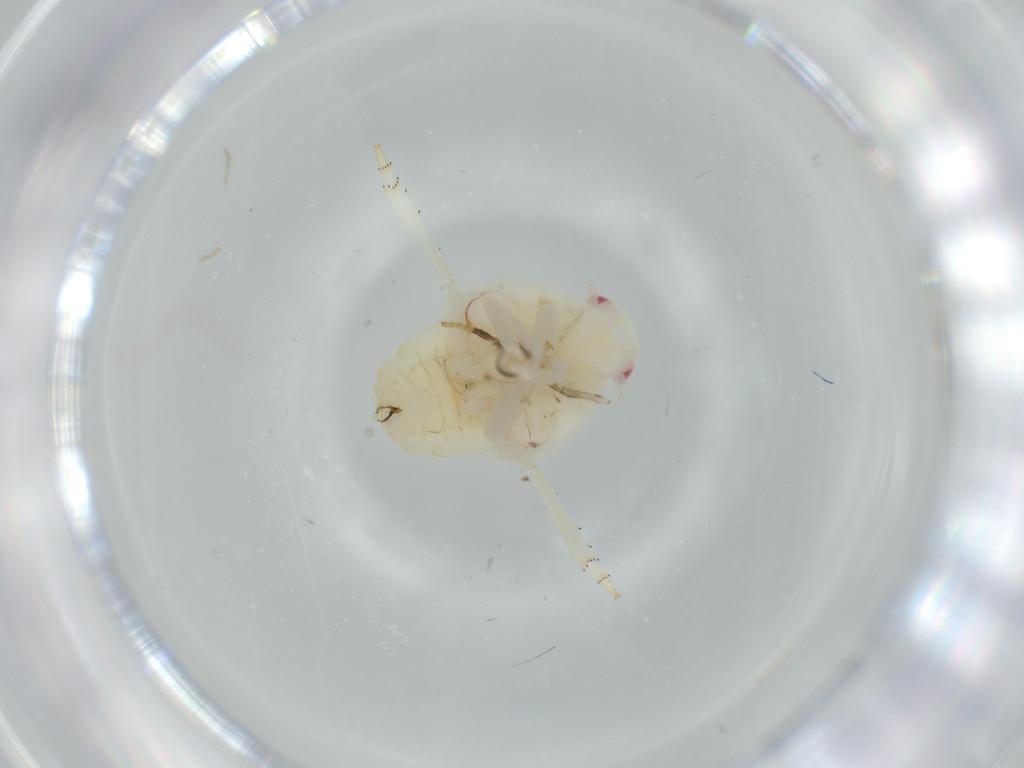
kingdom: Animalia
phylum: Arthropoda
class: Insecta
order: Hemiptera
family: Flatidae
